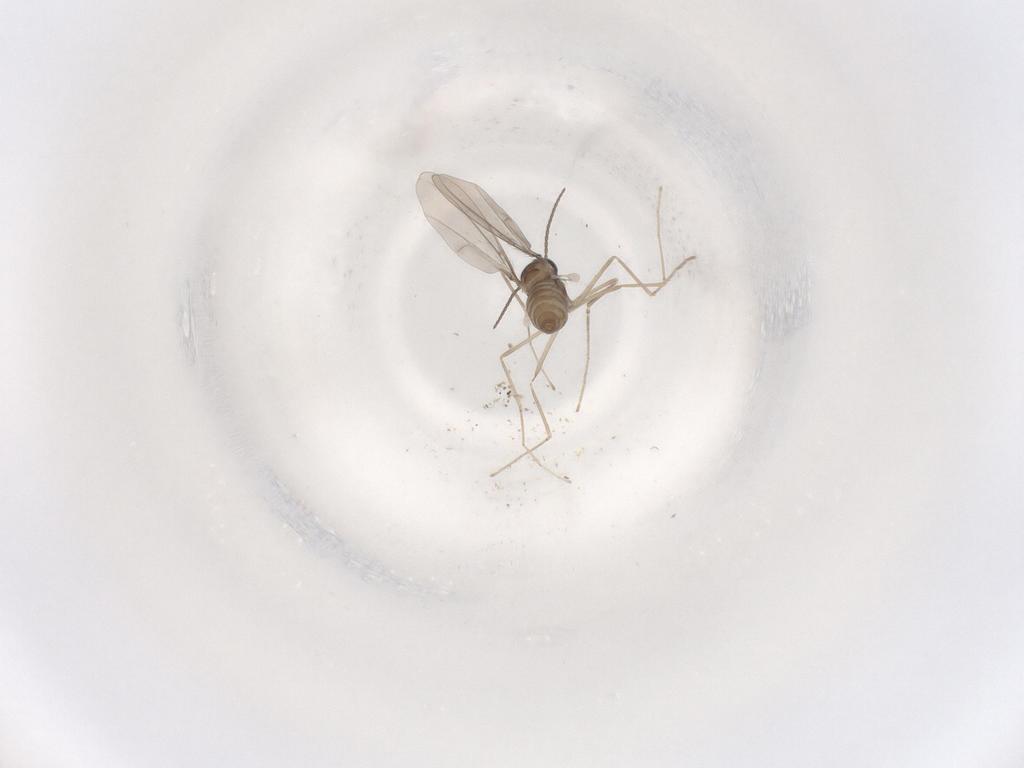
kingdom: Animalia
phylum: Arthropoda
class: Insecta
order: Diptera
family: Cecidomyiidae
